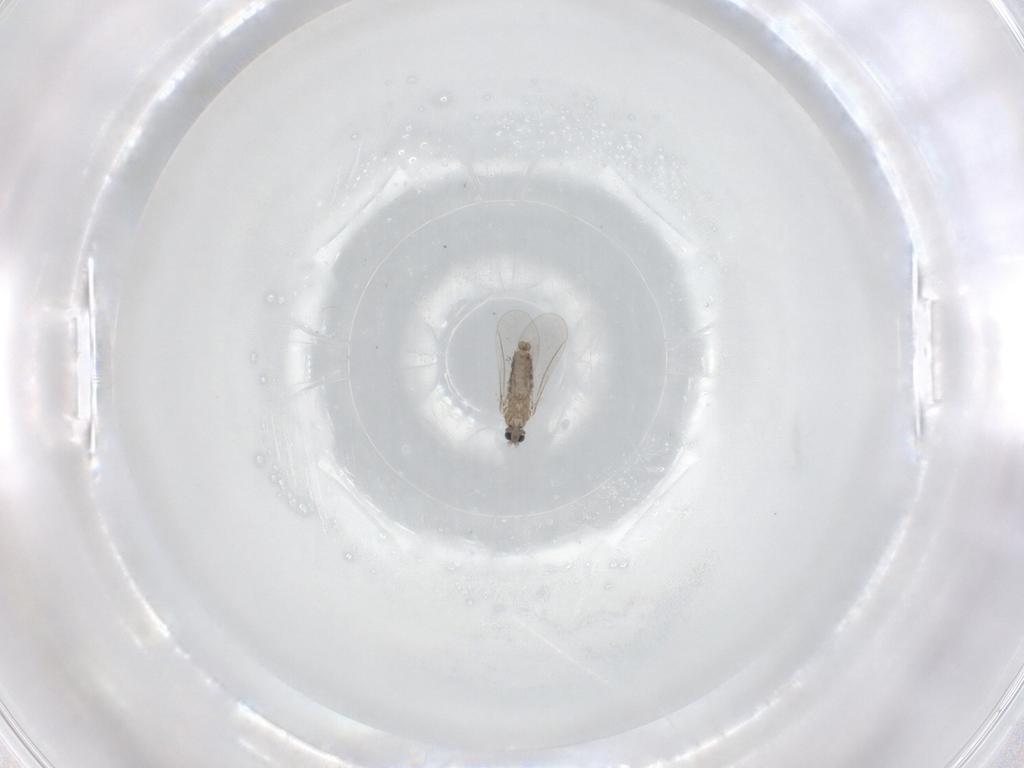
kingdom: Animalia
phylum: Arthropoda
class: Insecta
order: Diptera
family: Cecidomyiidae
